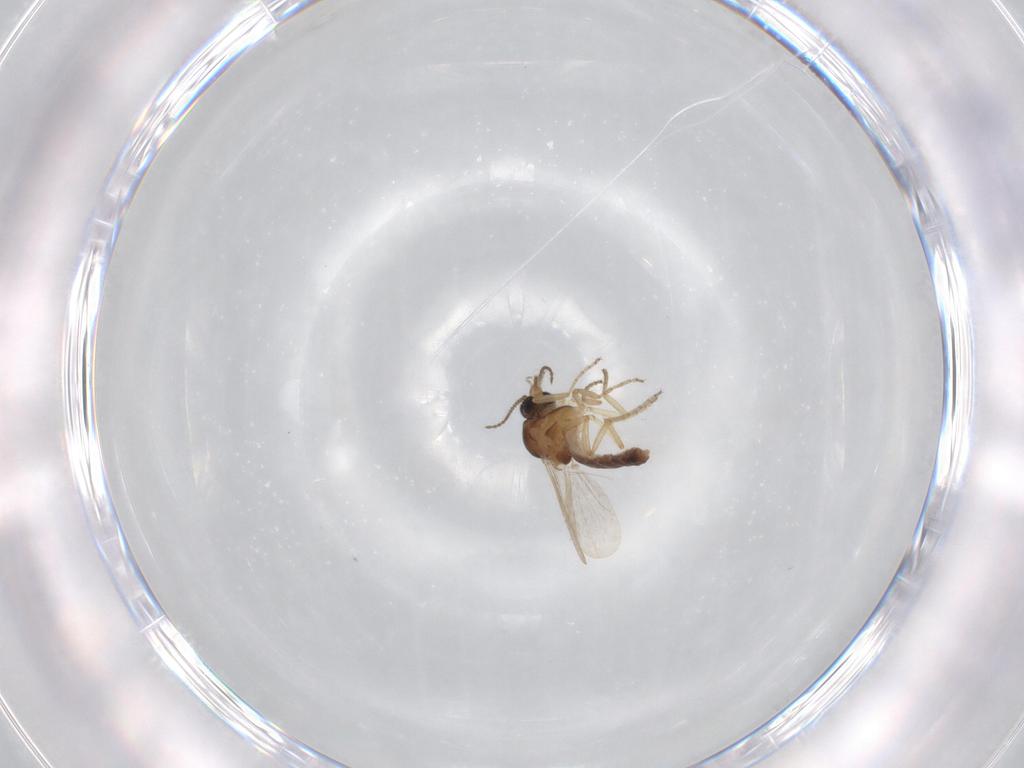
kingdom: Animalia
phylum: Arthropoda
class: Insecta
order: Diptera
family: Ceratopogonidae
